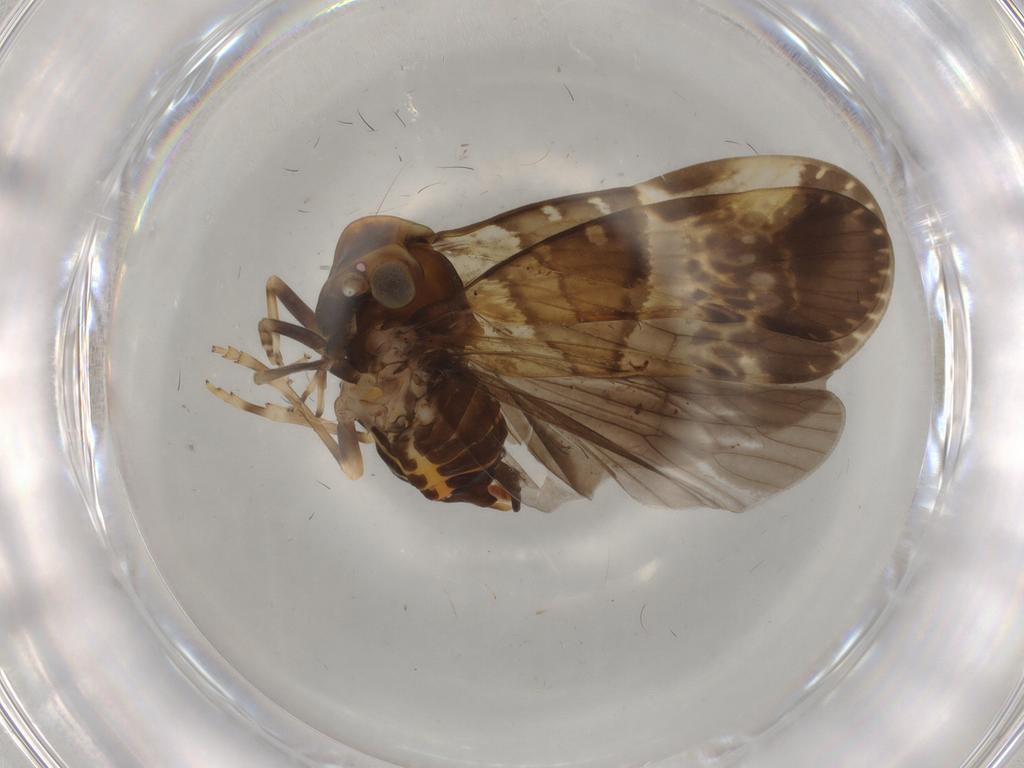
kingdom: Animalia
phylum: Arthropoda
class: Insecta
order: Hemiptera
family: Cixiidae
